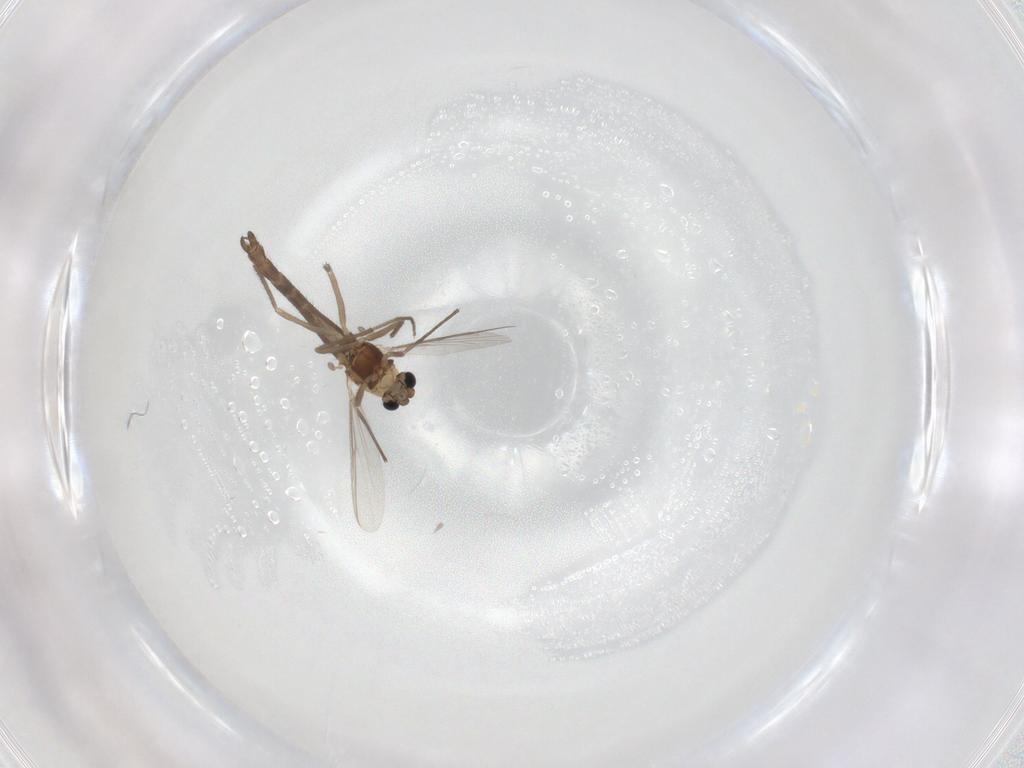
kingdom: Animalia
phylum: Arthropoda
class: Insecta
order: Diptera
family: Chironomidae
